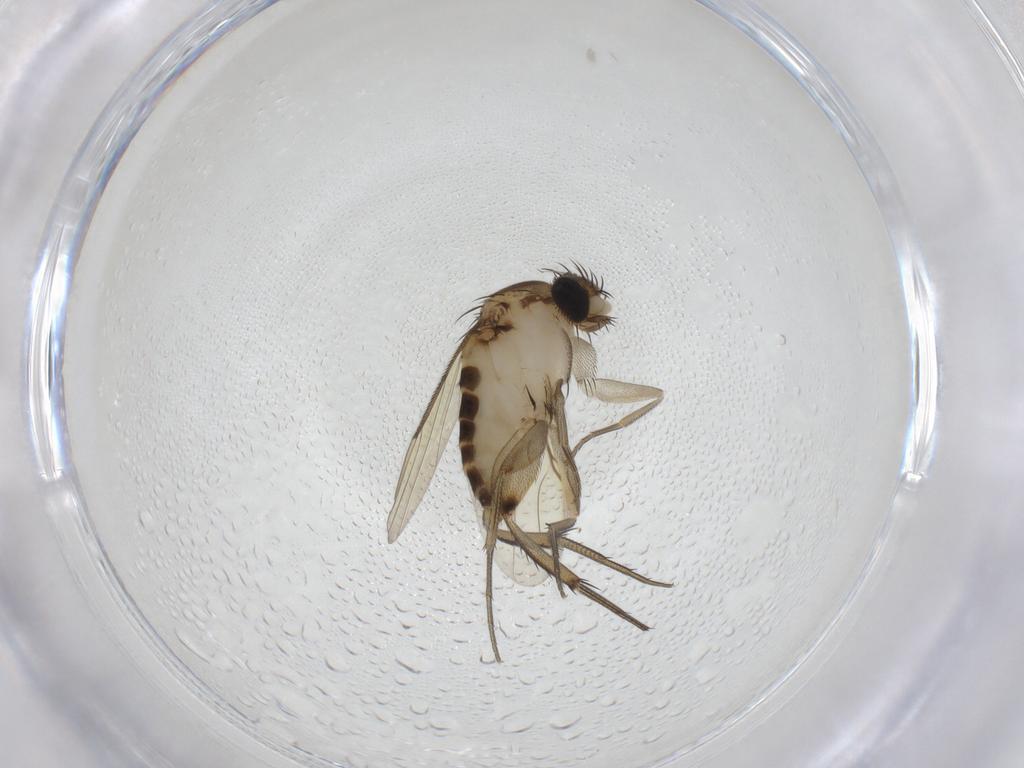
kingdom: Animalia
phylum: Arthropoda
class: Insecta
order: Diptera
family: Phoridae
